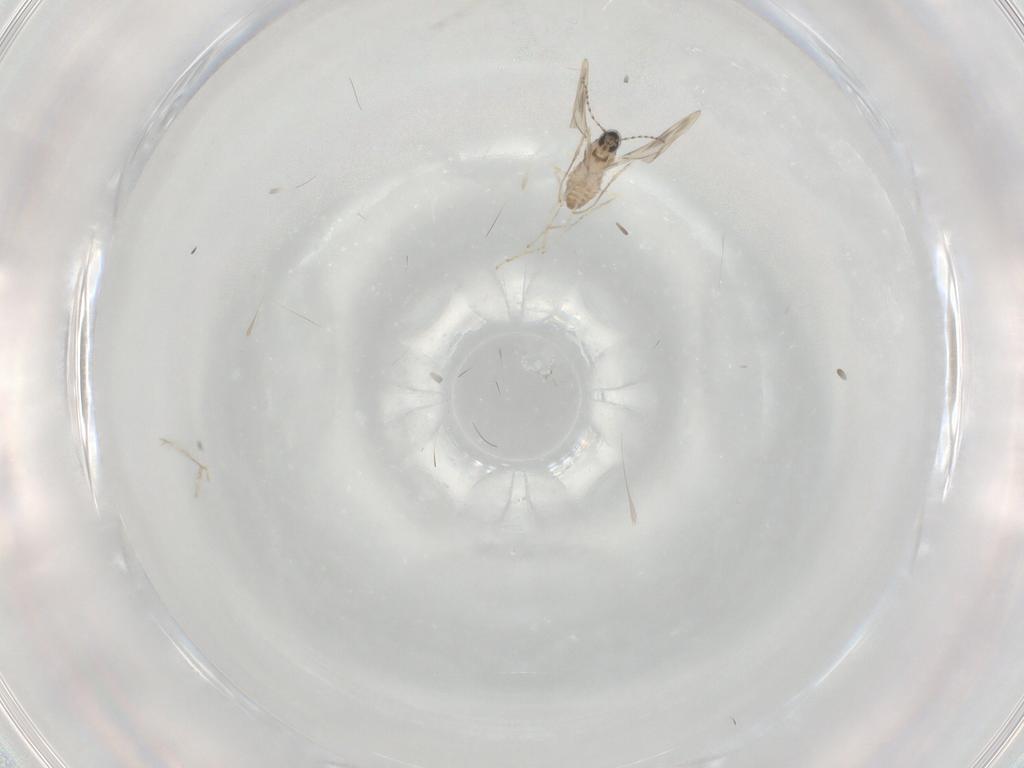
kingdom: Animalia
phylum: Arthropoda
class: Insecta
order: Diptera
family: Cecidomyiidae
